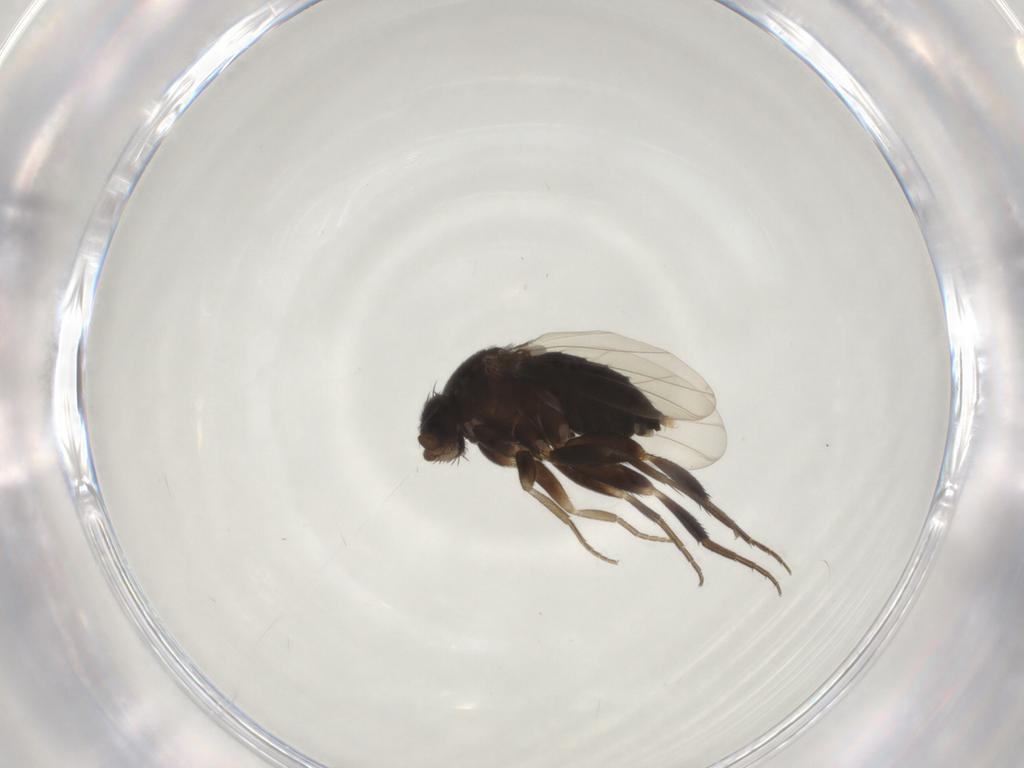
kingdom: Animalia
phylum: Arthropoda
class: Insecta
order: Diptera
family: Phoridae
